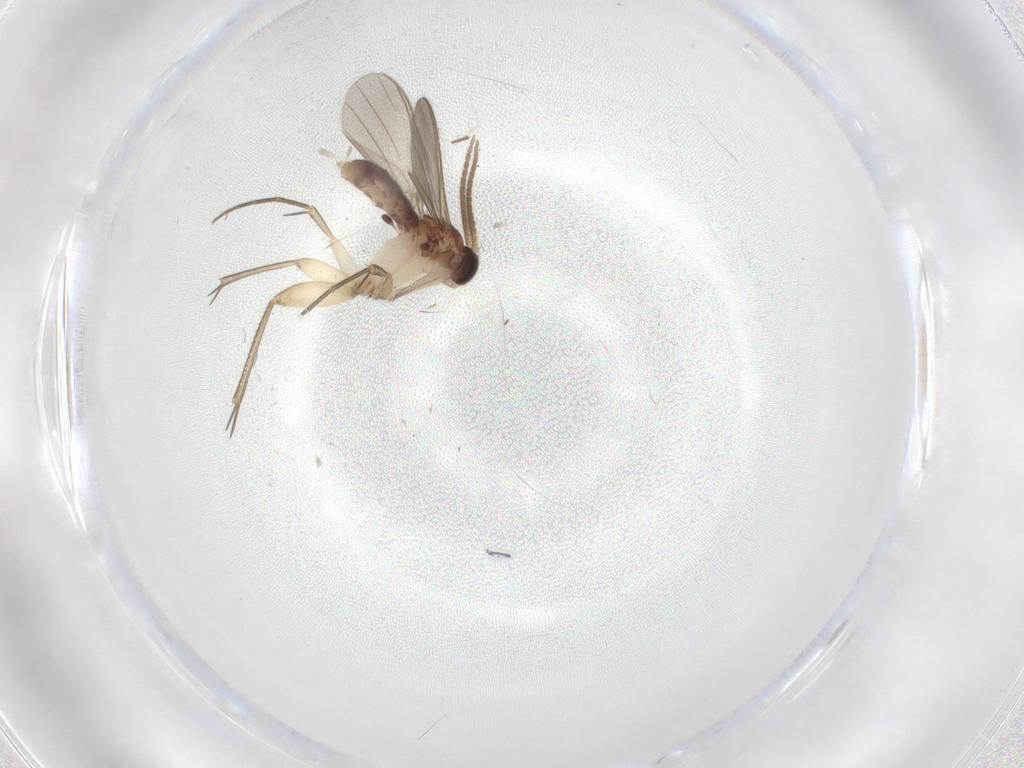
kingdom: Animalia
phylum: Arthropoda
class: Insecta
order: Diptera
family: Mycetophilidae
